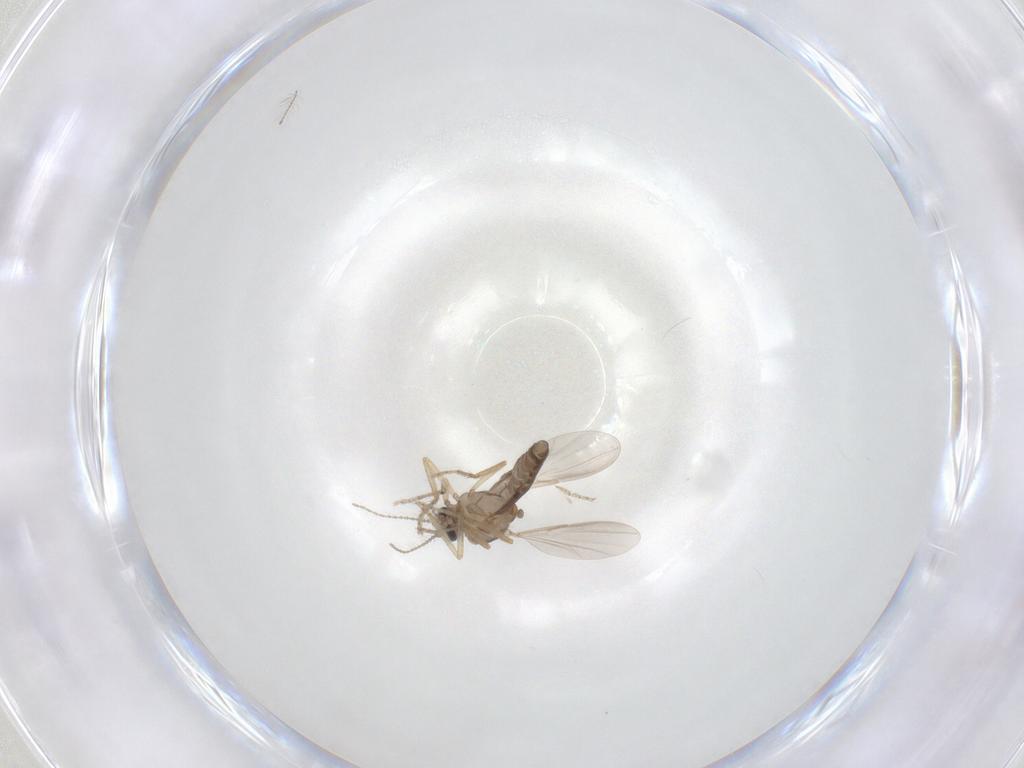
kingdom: Animalia
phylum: Arthropoda
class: Insecta
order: Diptera
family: Ceratopogonidae
